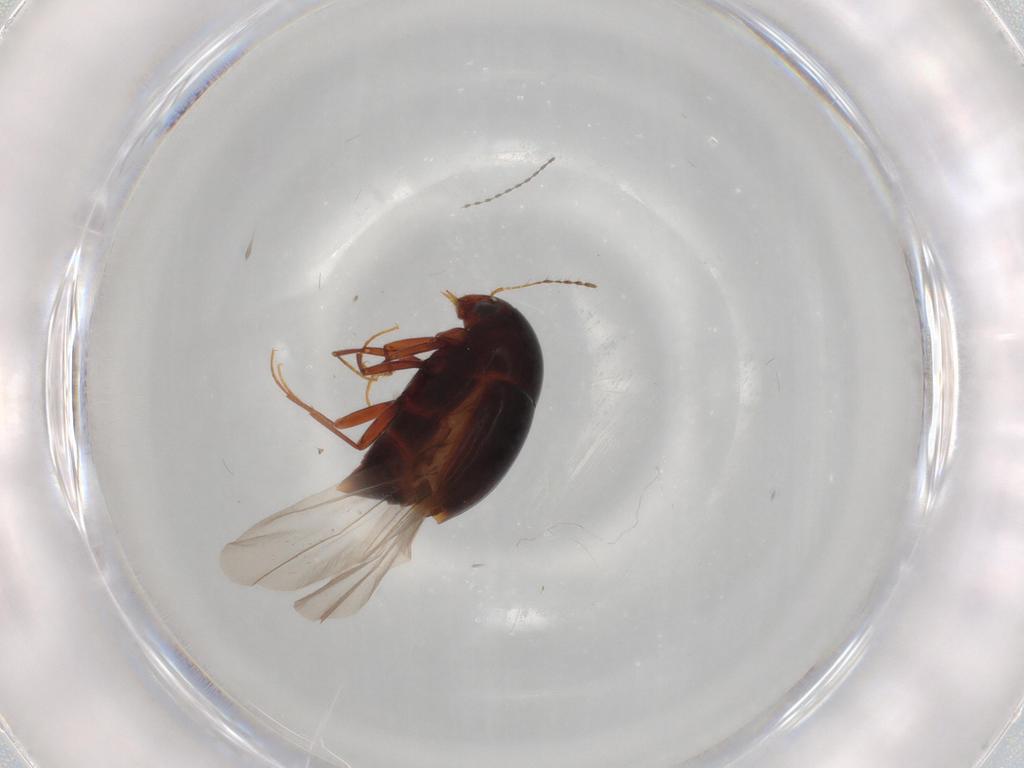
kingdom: Animalia
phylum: Arthropoda
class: Insecta
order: Coleoptera
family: Staphylinidae
